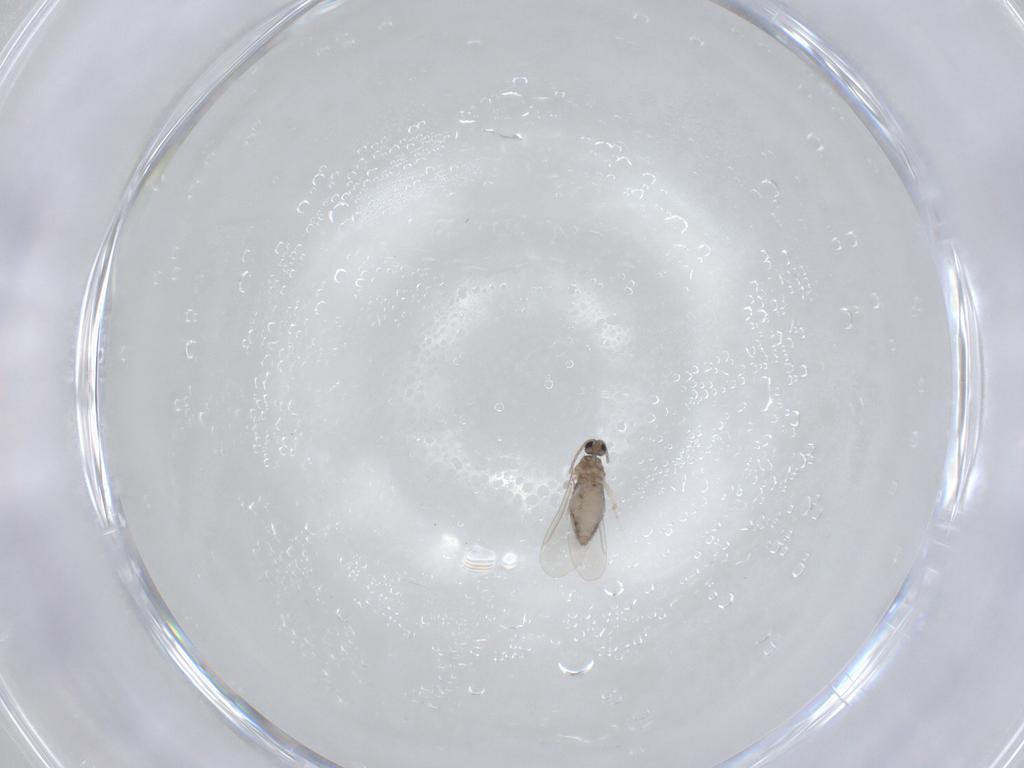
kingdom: Animalia
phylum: Arthropoda
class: Insecta
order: Diptera
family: Cecidomyiidae
